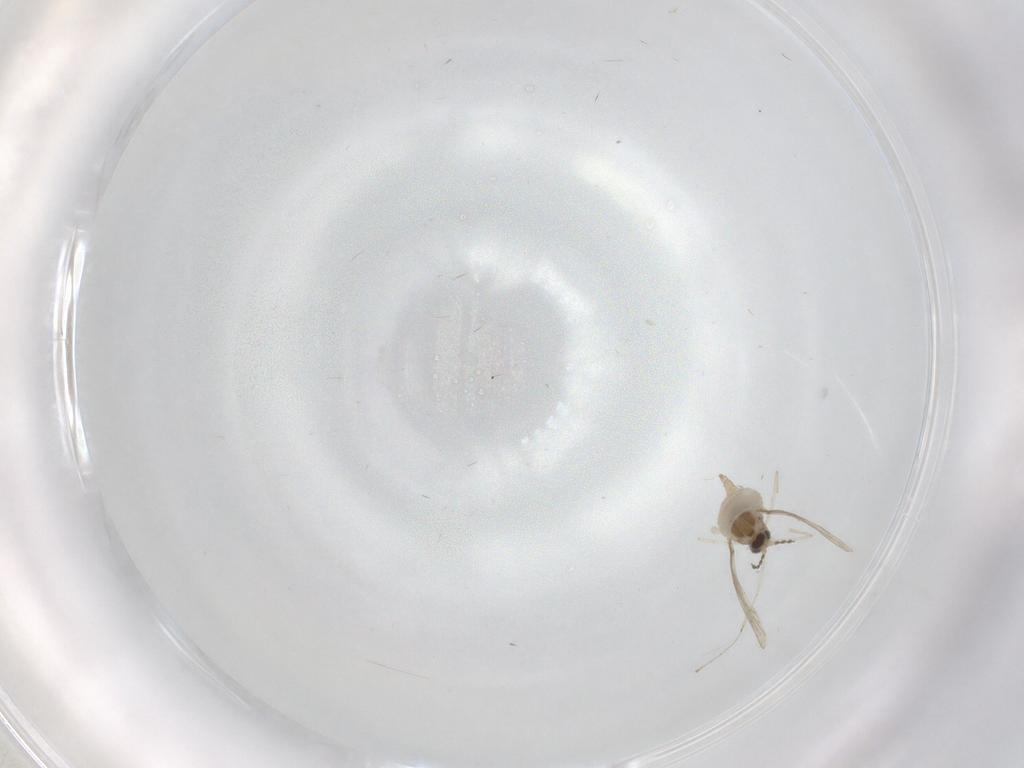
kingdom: Animalia
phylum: Arthropoda
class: Insecta
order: Diptera
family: Cecidomyiidae
